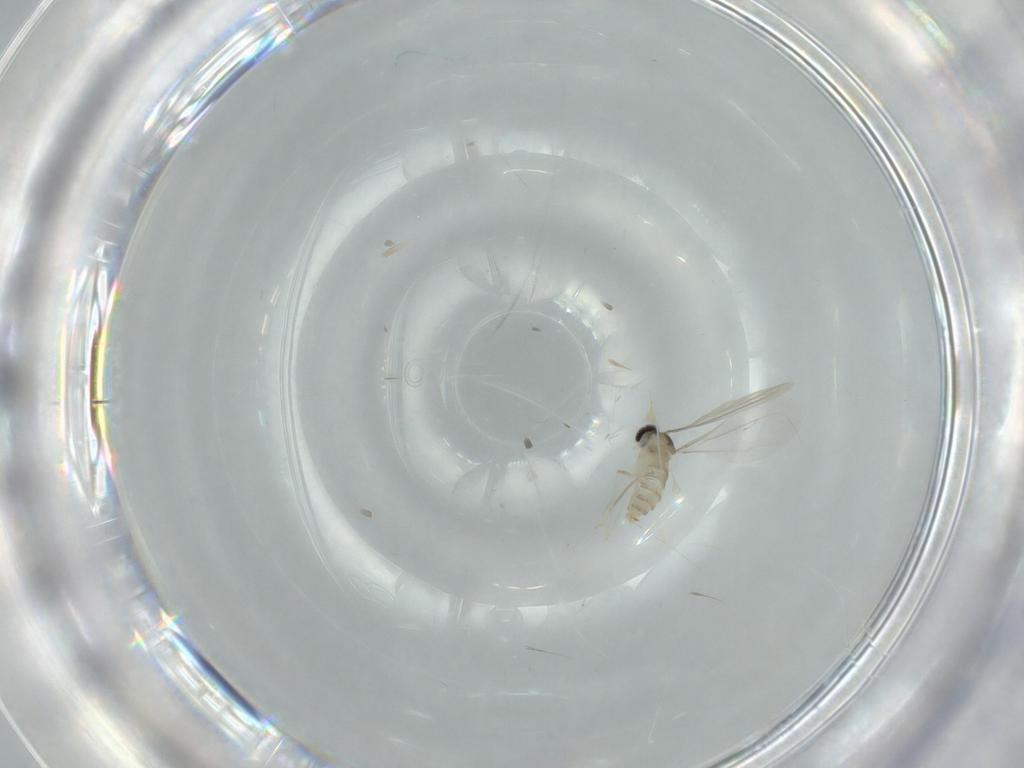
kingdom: Animalia
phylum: Arthropoda
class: Insecta
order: Diptera
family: Cecidomyiidae
